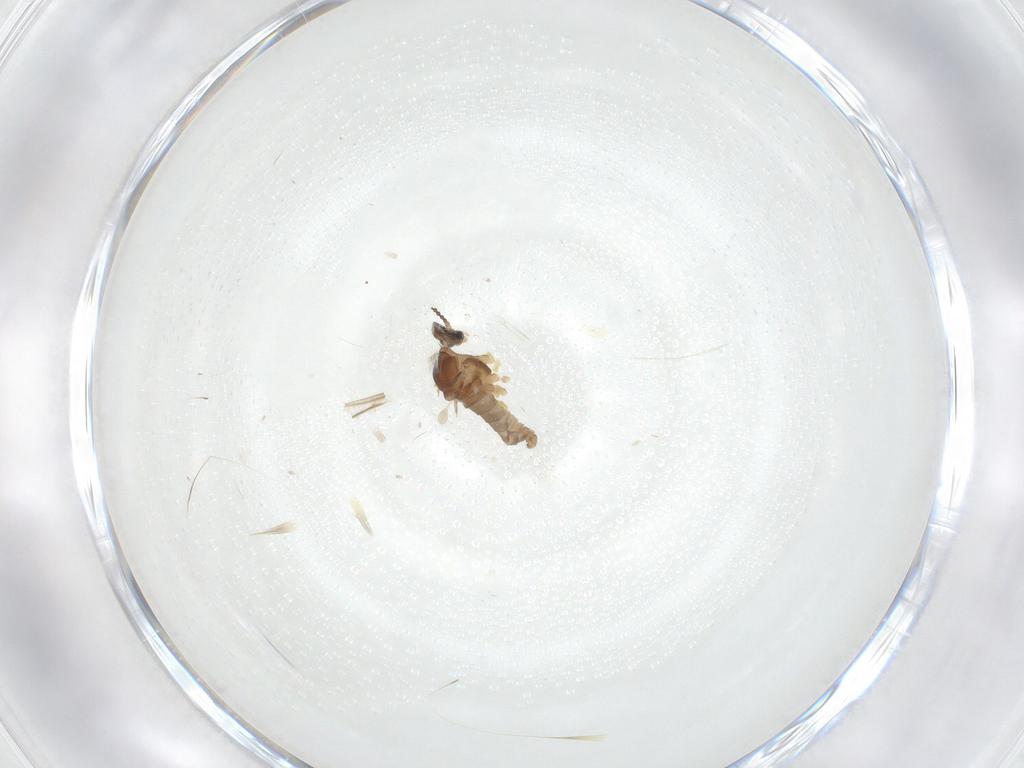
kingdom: Animalia
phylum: Arthropoda
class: Insecta
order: Diptera
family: Cecidomyiidae
